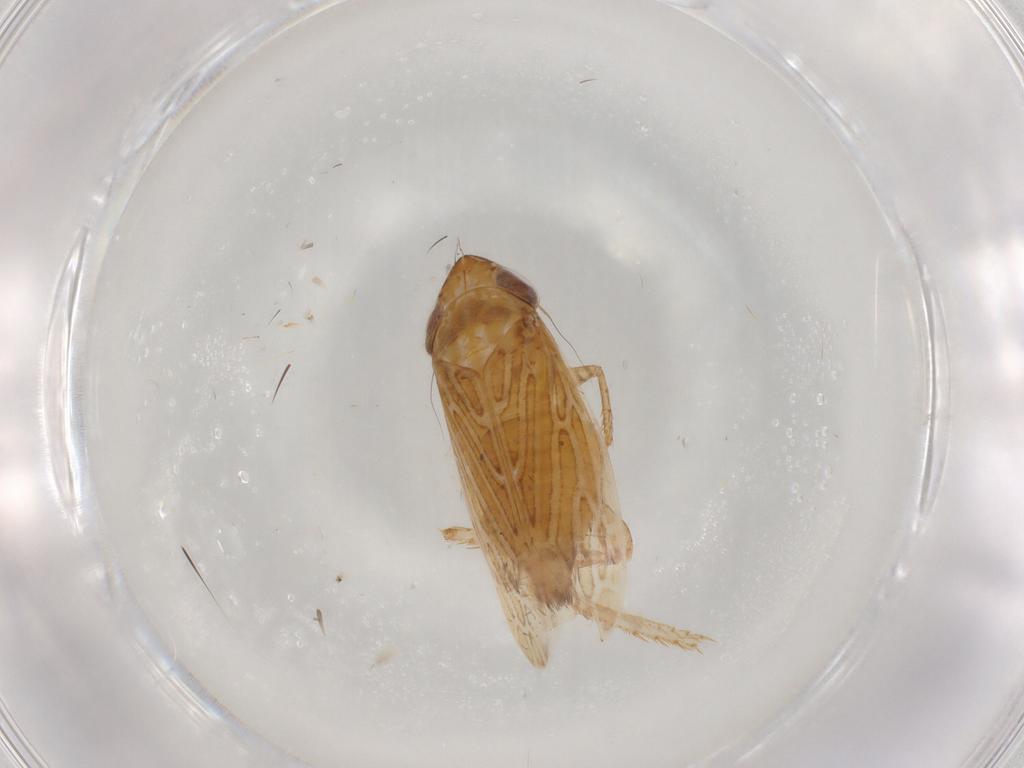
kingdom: Animalia
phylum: Arthropoda
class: Insecta
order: Hemiptera
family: Cicadellidae
